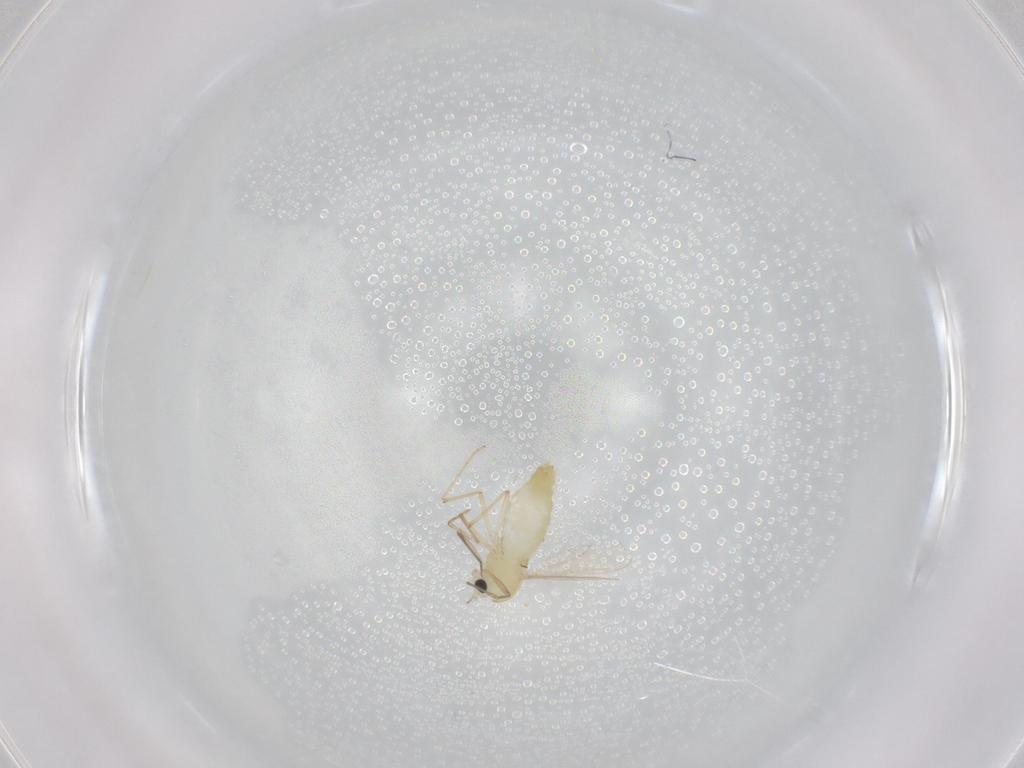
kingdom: Animalia
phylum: Arthropoda
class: Insecta
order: Diptera
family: Chironomidae
